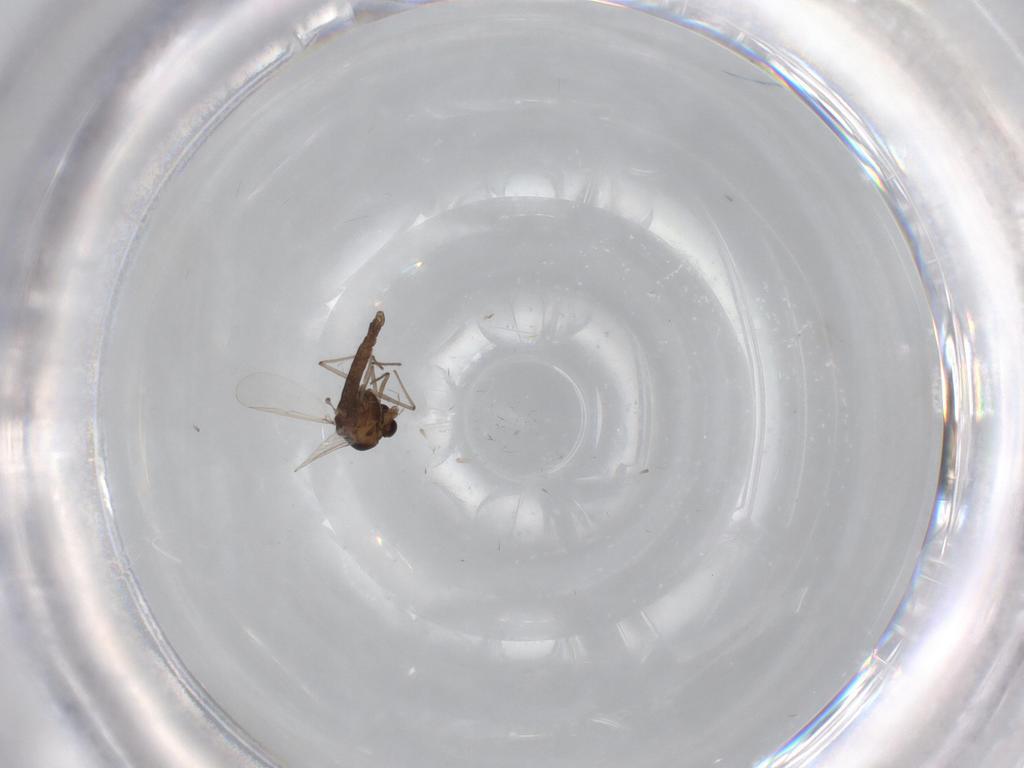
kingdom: Animalia
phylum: Arthropoda
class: Insecta
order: Diptera
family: Chironomidae
